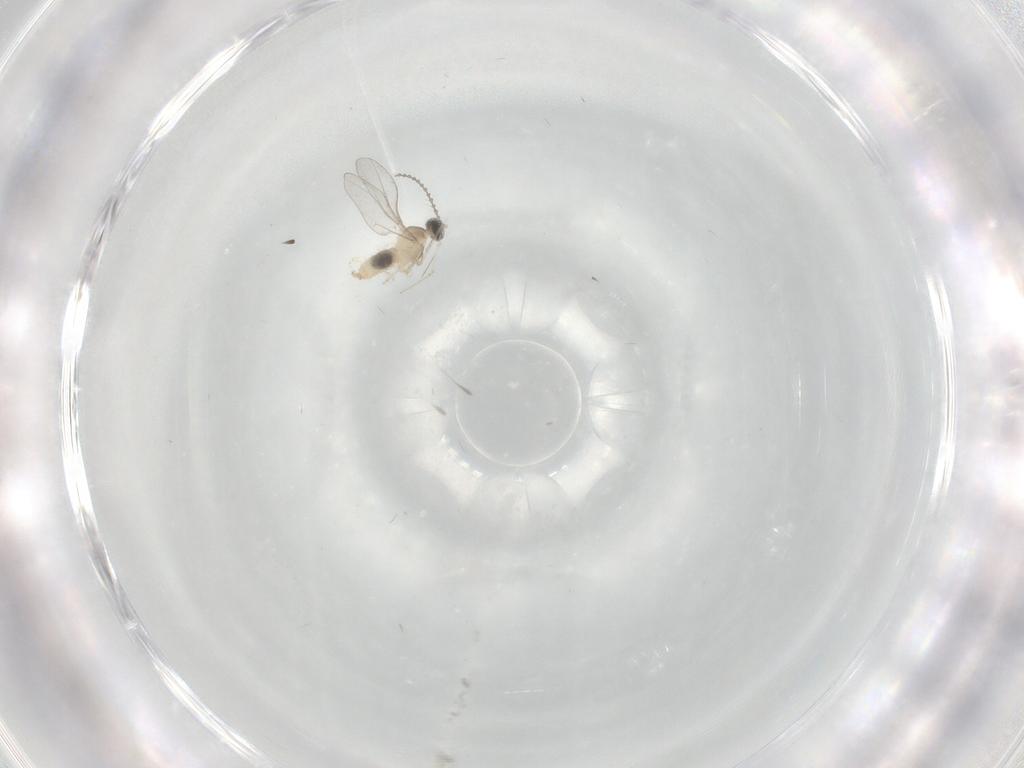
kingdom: Animalia
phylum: Arthropoda
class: Insecta
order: Diptera
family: Cecidomyiidae
